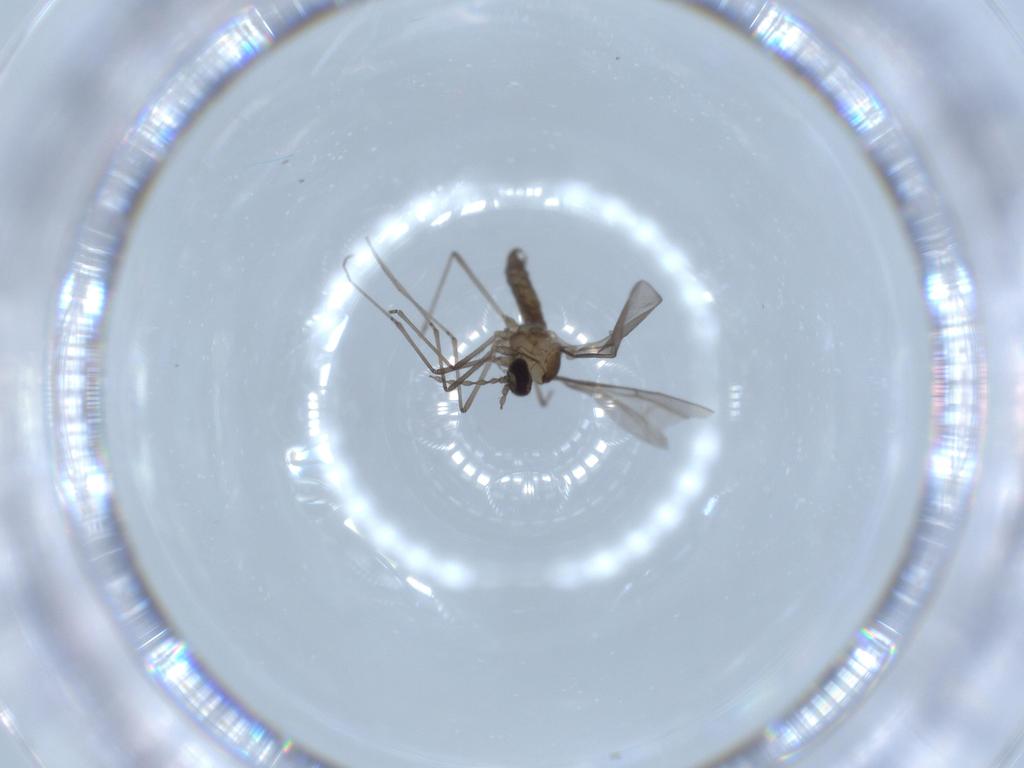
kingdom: Animalia
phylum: Arthropoda
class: Insecta
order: Diptera
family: Cecidomyiidae
